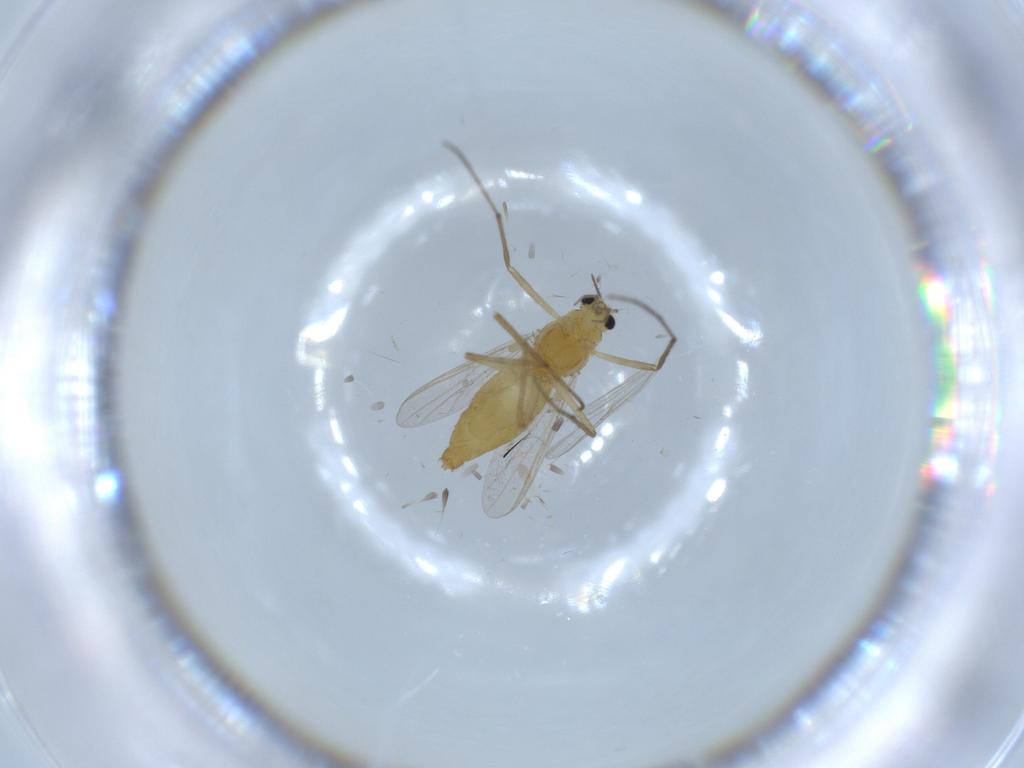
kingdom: Animalia
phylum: Arthropoda
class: Insecta
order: Diptera
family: Chironomidae
